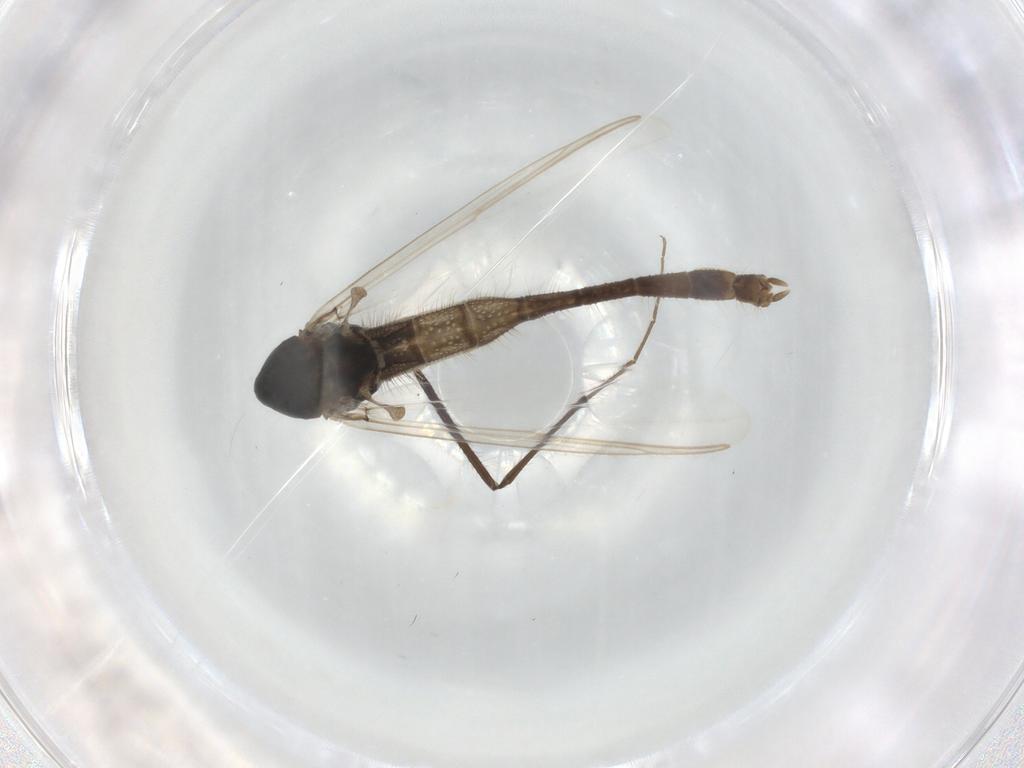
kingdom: Animalia
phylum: Arthropoda
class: Insecta
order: Diptera
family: Chironomidae
